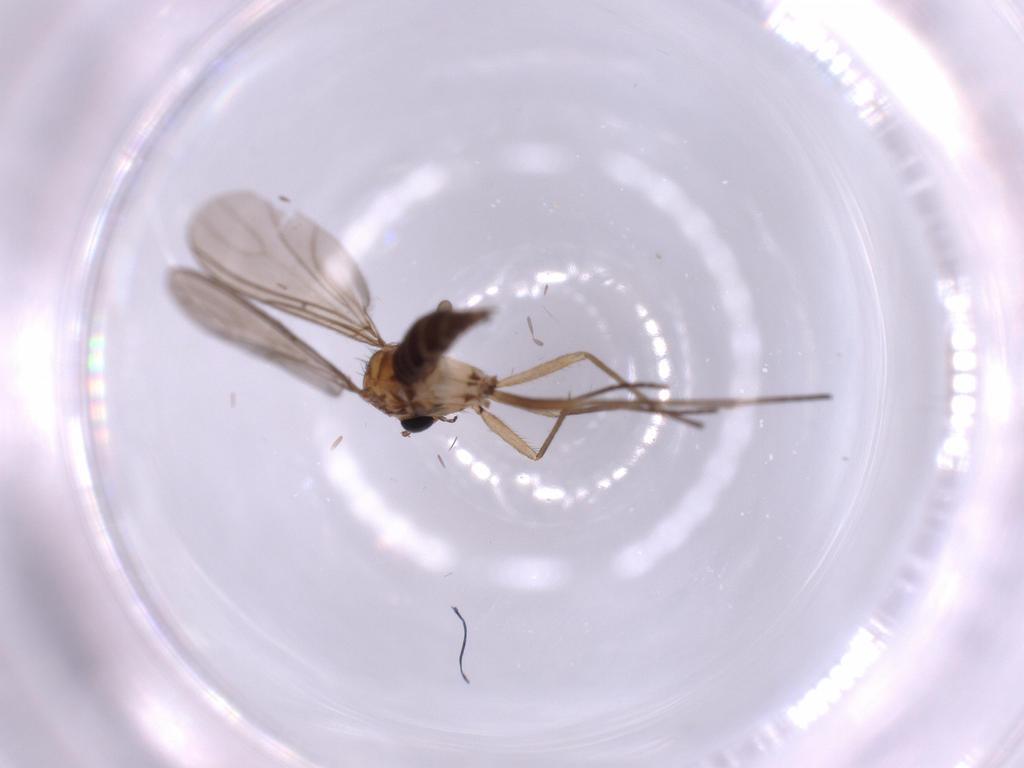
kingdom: Animalia
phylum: Arthropoda
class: Insecta
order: Diptera
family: Sciaridae
